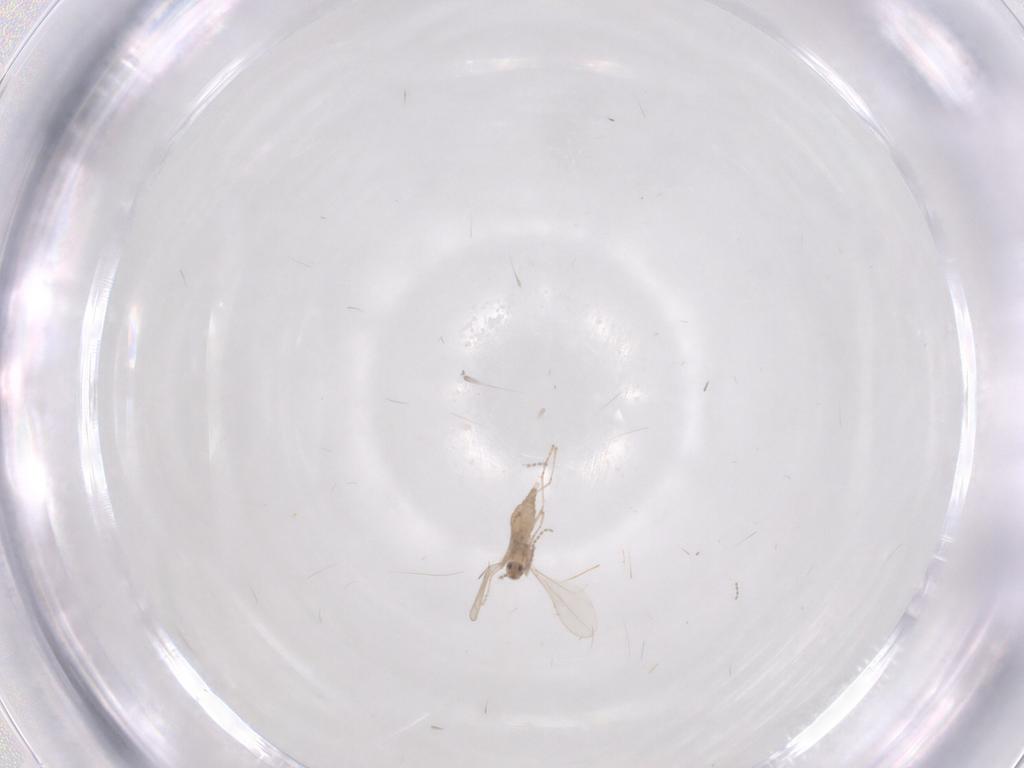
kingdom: Animalia
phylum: Arthropoda
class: Insecta
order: Diptera
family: Cecidomyiidae
